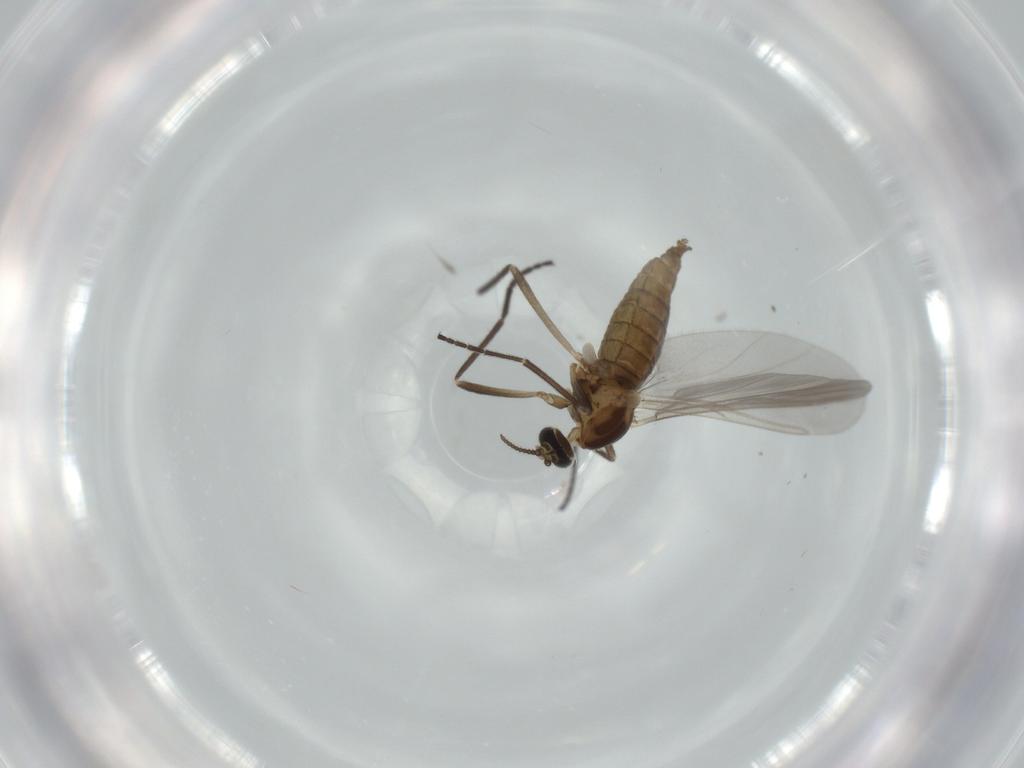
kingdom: Animalia
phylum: Arthropoda
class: Insecta
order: Diptera
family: Cecidomyiidae
